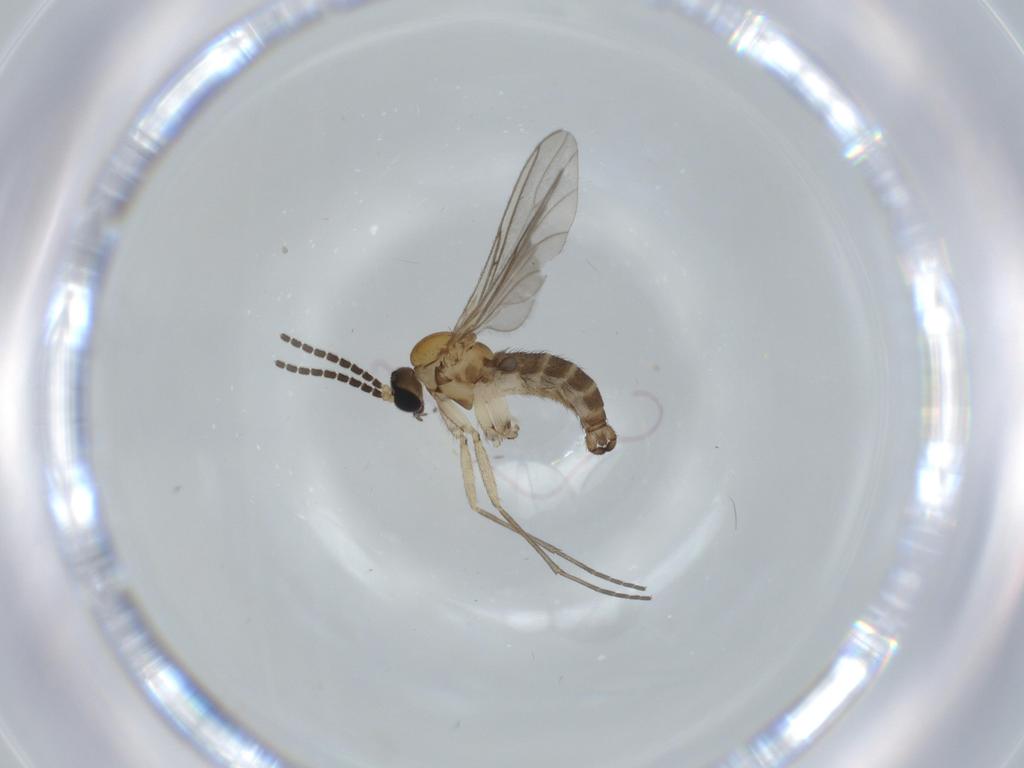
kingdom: Animalia
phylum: Arthropoda
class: Insecta
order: Diptera
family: Sciaridae
